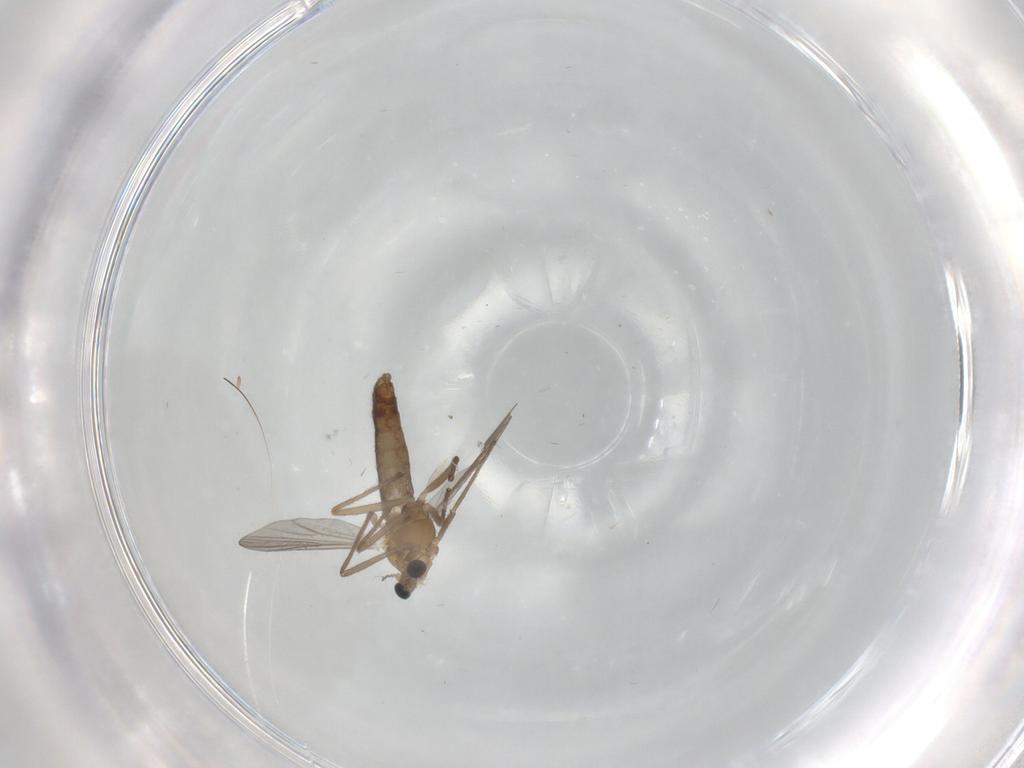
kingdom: Animalia
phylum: Arthropoda
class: Insecta
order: Diptera
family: Chironomidae
